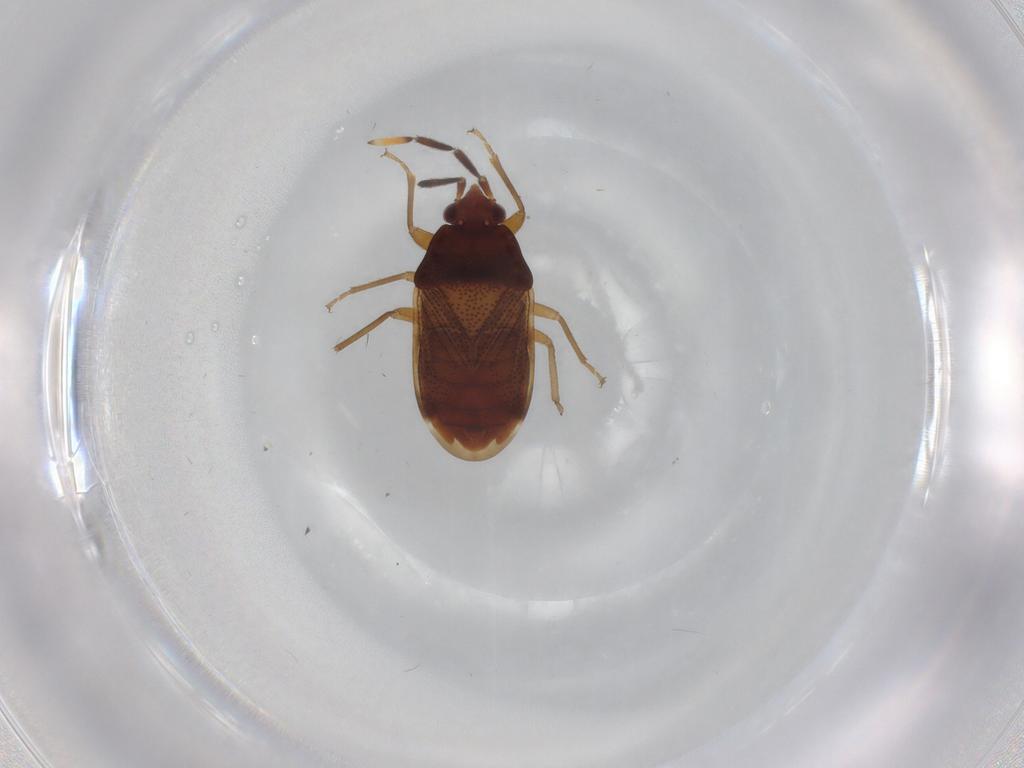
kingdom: Animalia
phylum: Arthropoda
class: Insecta
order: Hemiptera
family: Rhyparochromidae
